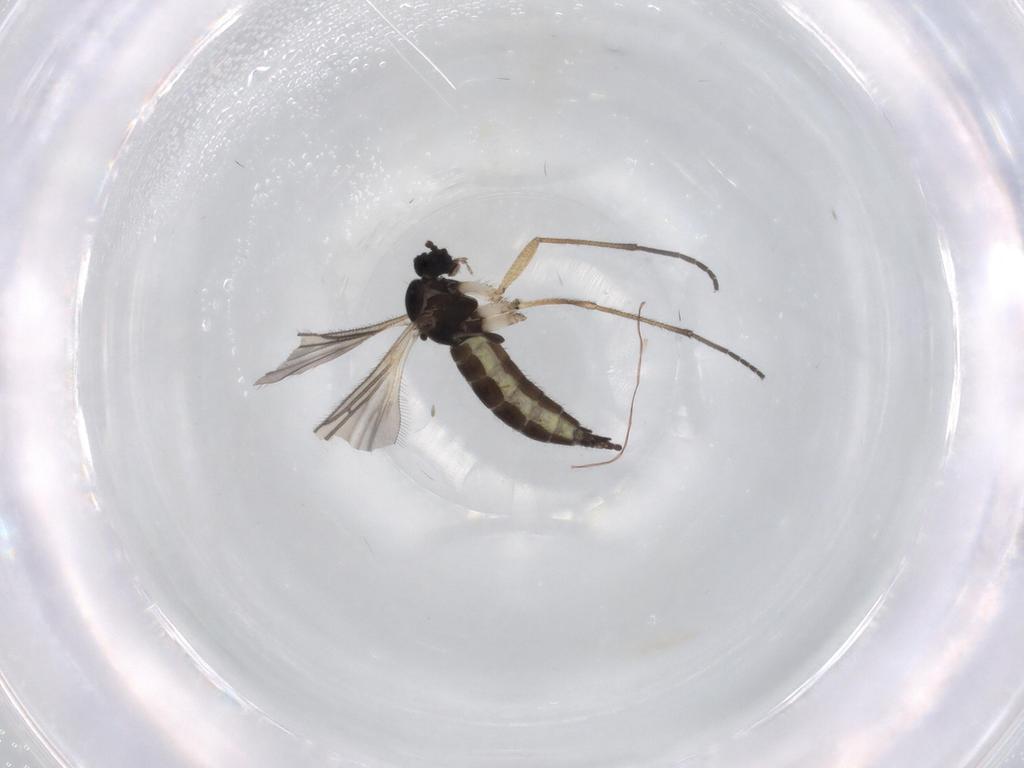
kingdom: Animalia
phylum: Arthropoda
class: Insecta
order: Diptera
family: Sciaridae
